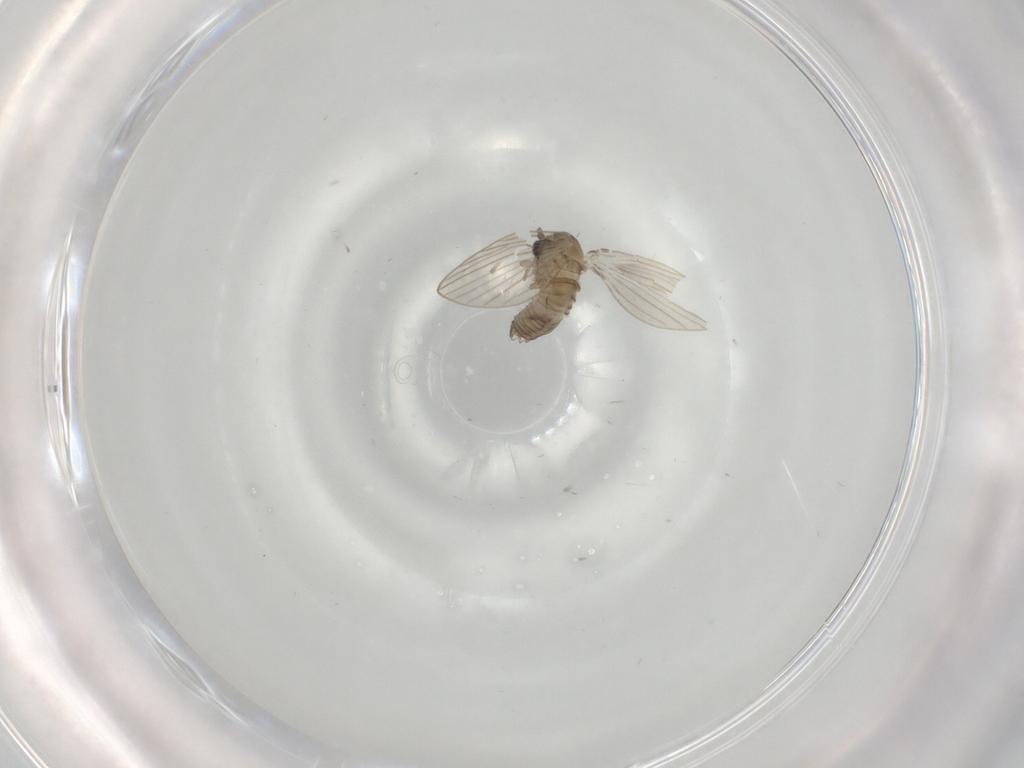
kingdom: Animalia
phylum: Arthropoda
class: Insecta
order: Diptera
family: Psychodidae
